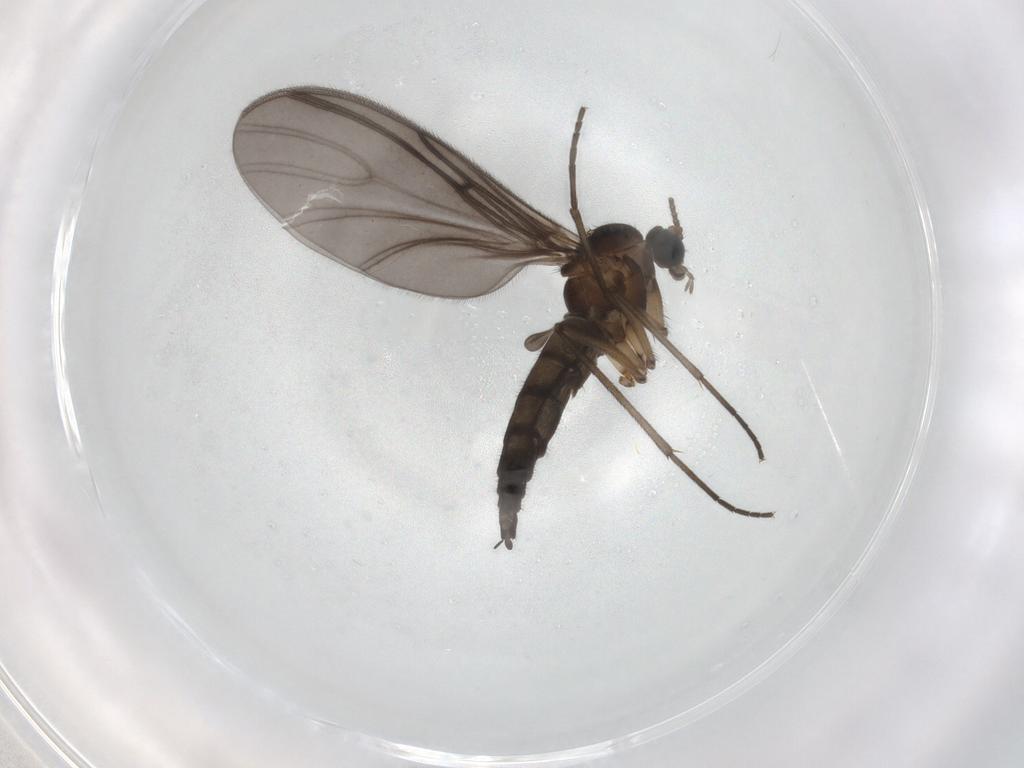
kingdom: Animalia
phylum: Arthropoda
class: Insecta
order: Diptera
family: Sciaridae
